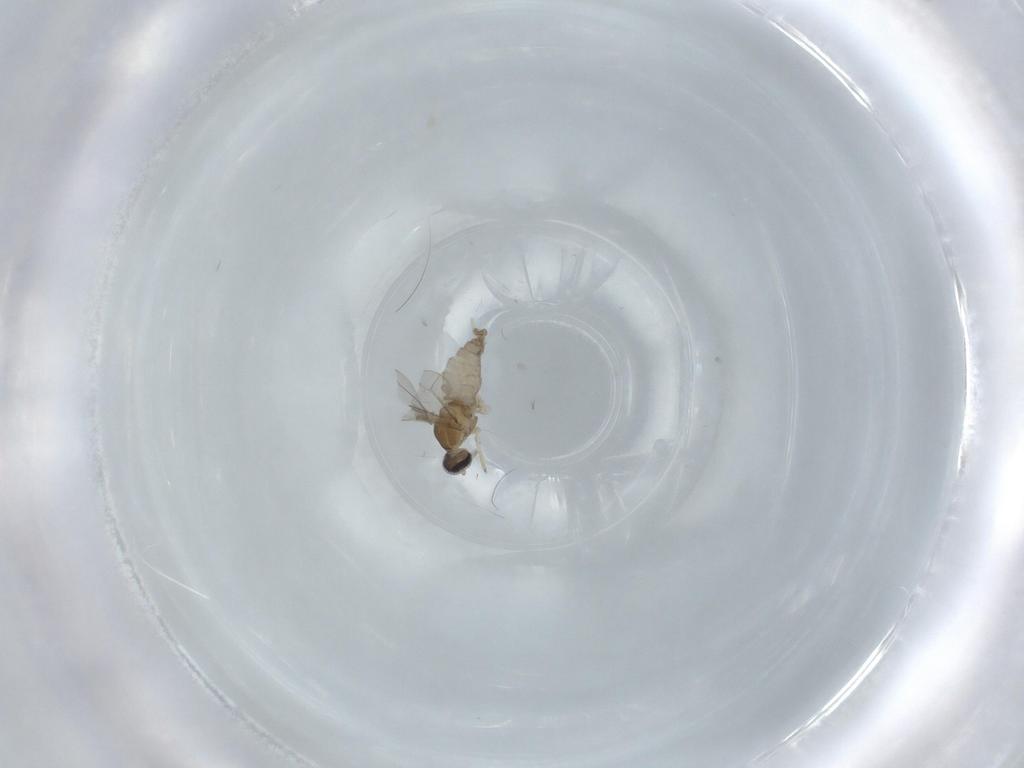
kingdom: Animalia
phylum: Arthropoda
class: Insecta
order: Diptera
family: Cecidomyiidae
